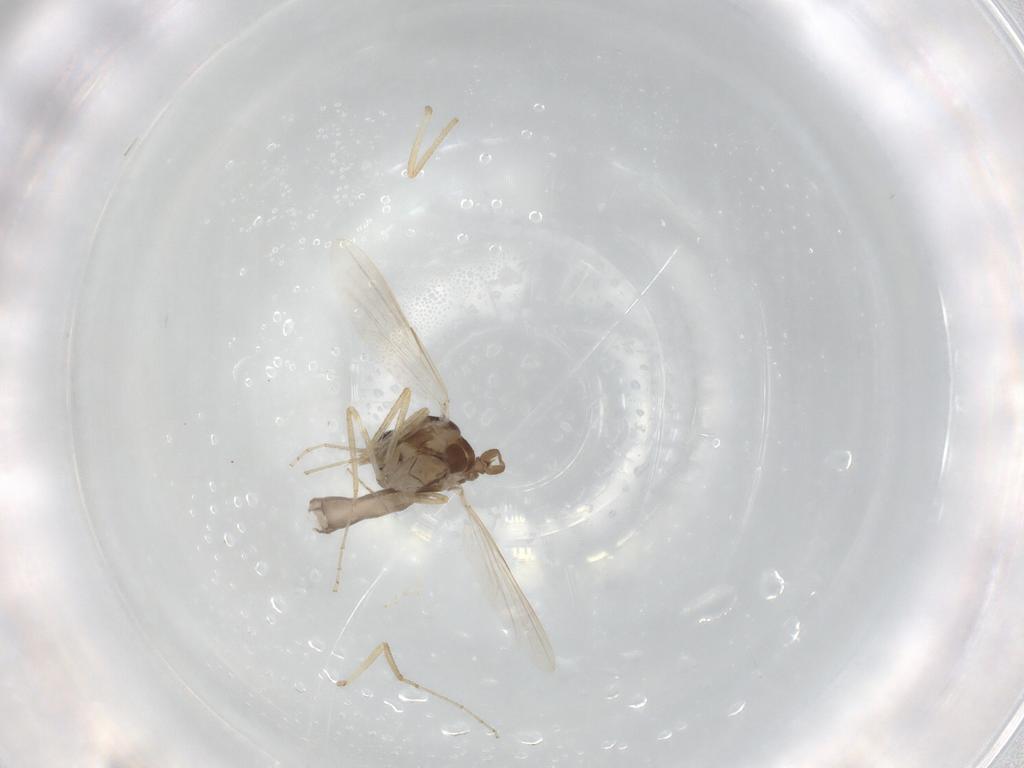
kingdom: Animalia
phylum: Arthropoda
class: Insecta
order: Diptera
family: Ceratopogonidae
